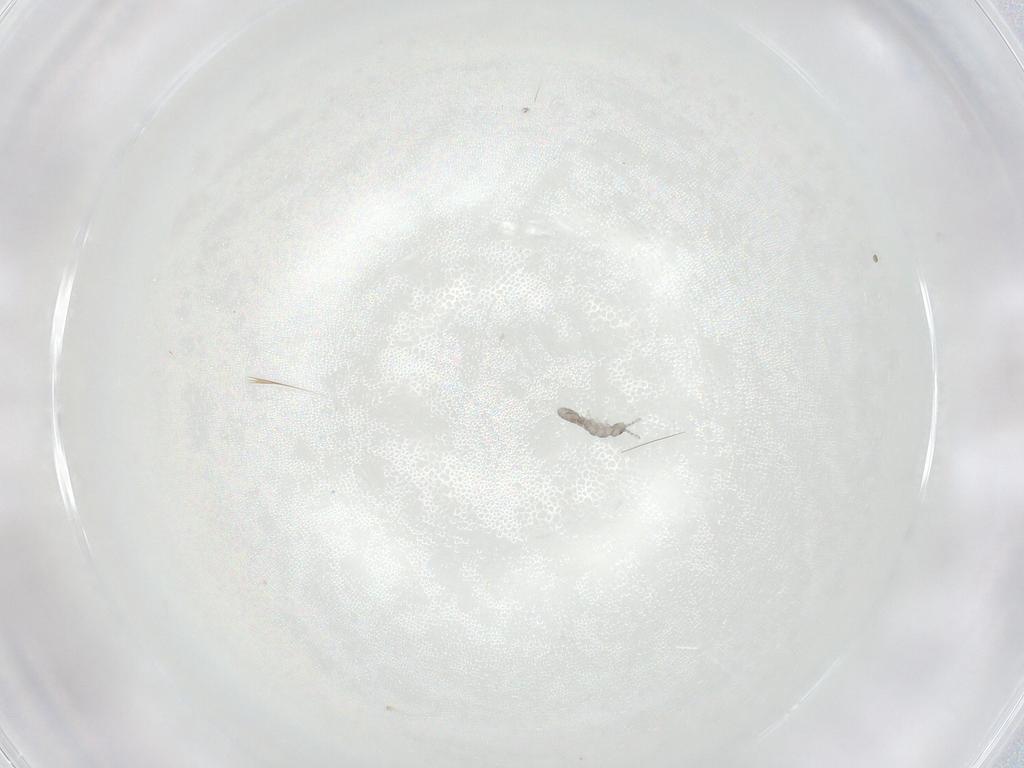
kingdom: Animalia
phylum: Arthropoda
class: Collembola
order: Entomobryomorpha
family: Isotomidae
